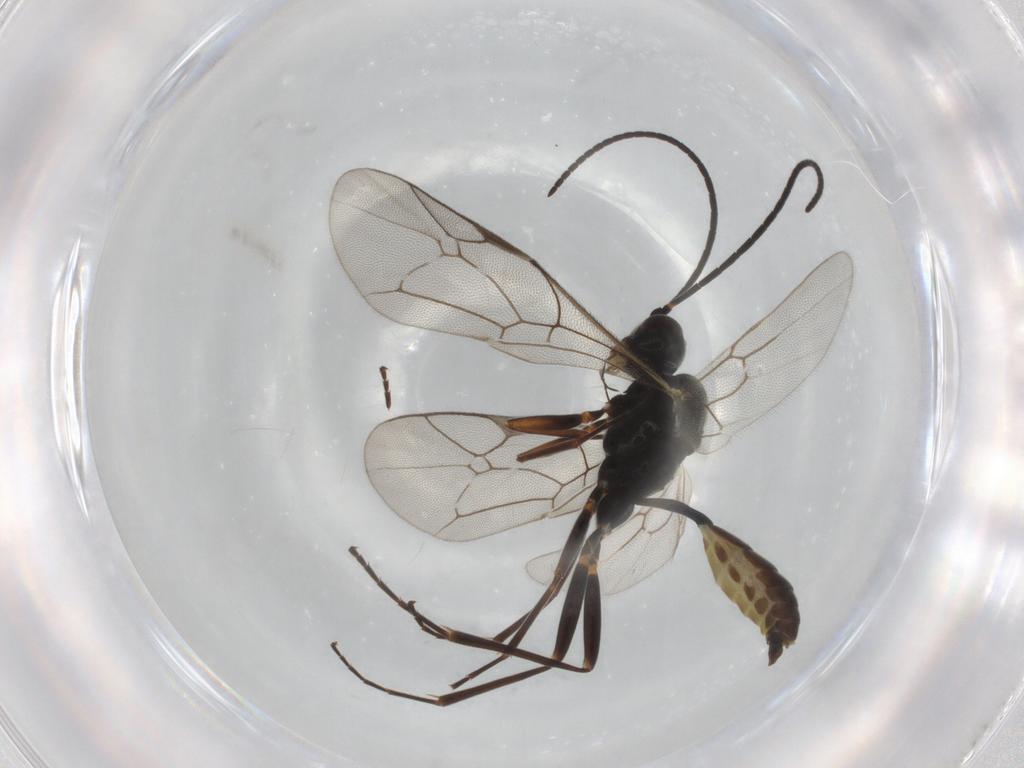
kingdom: Animalia
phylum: Arthropoda
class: Insecta
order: Hymenoptera
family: Ichneumonidae
